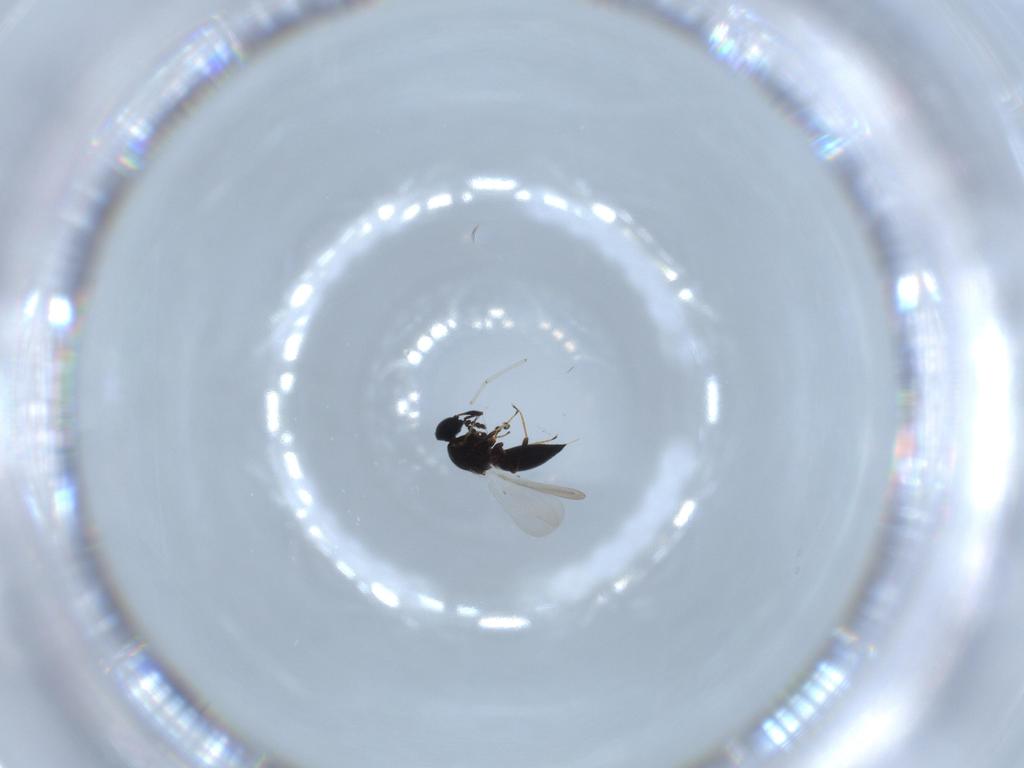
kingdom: Animalia
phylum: Arthropoda
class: Insecta
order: Hymenoptera
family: Platygastridae
